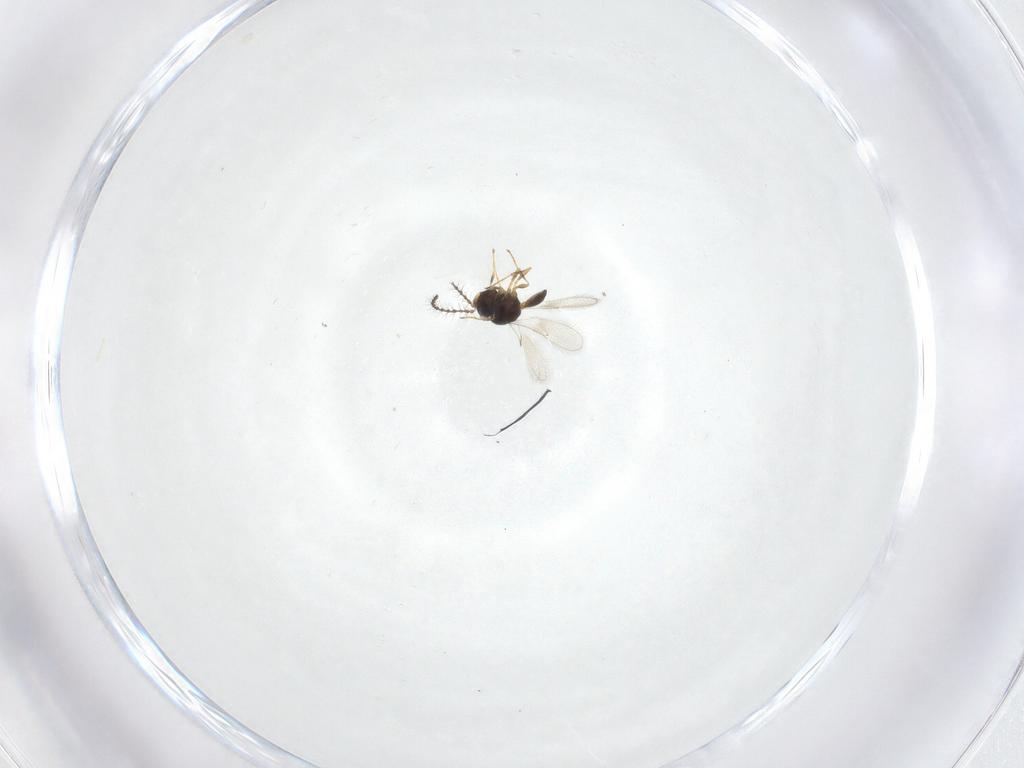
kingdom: Animalia
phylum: Arthropoda
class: Insecta
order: Hymenoptera
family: Scelionidae
